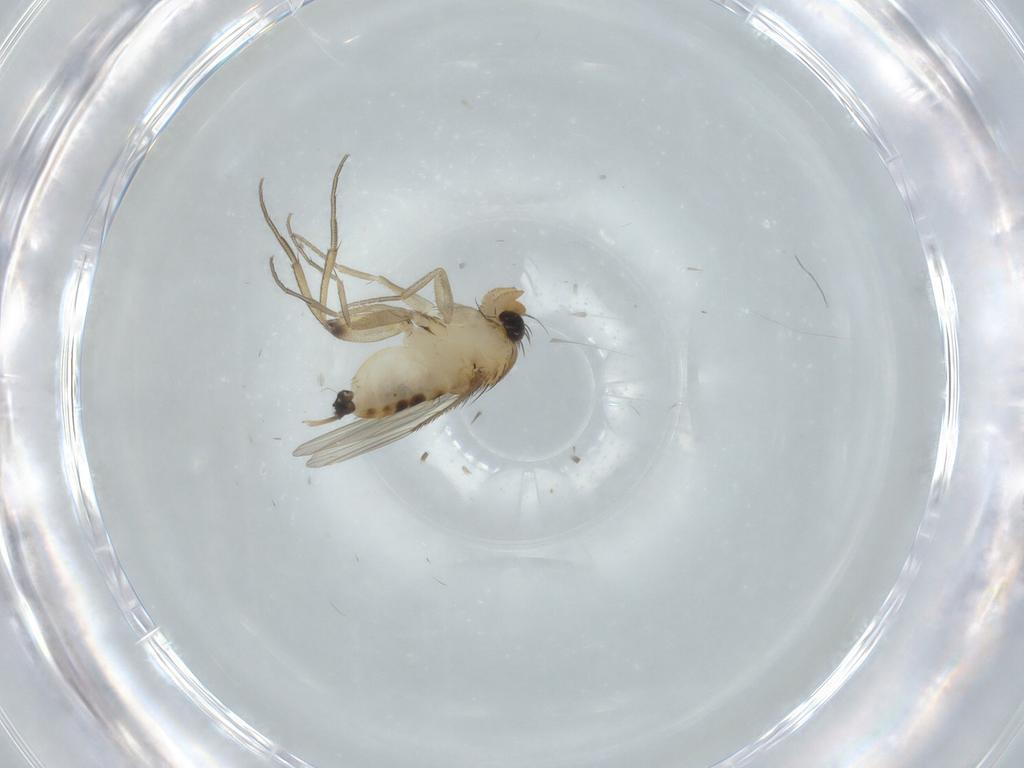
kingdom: Animalia
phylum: Arthropoda
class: Insecta
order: Diptera
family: Phoridae
